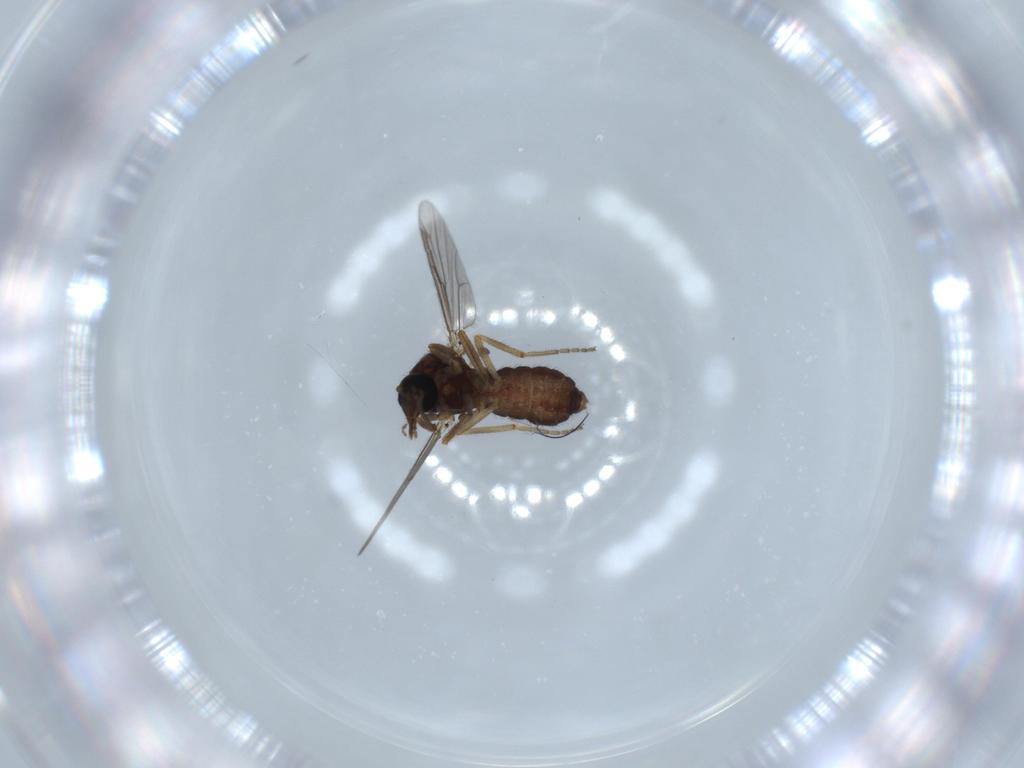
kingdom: Animalia
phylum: Arthropoda
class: Insecta
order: Diptera
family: Ceratopogonidae
